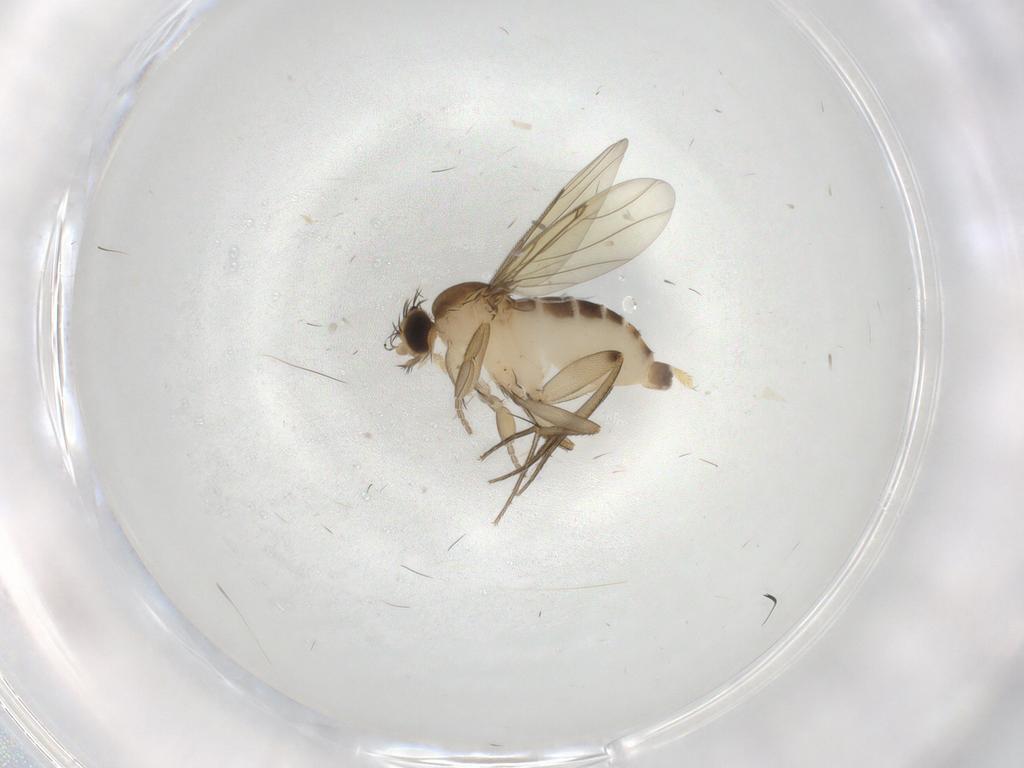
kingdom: Animalia
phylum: Arthropoda
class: Insecta
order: Diptera
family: Phoridae
